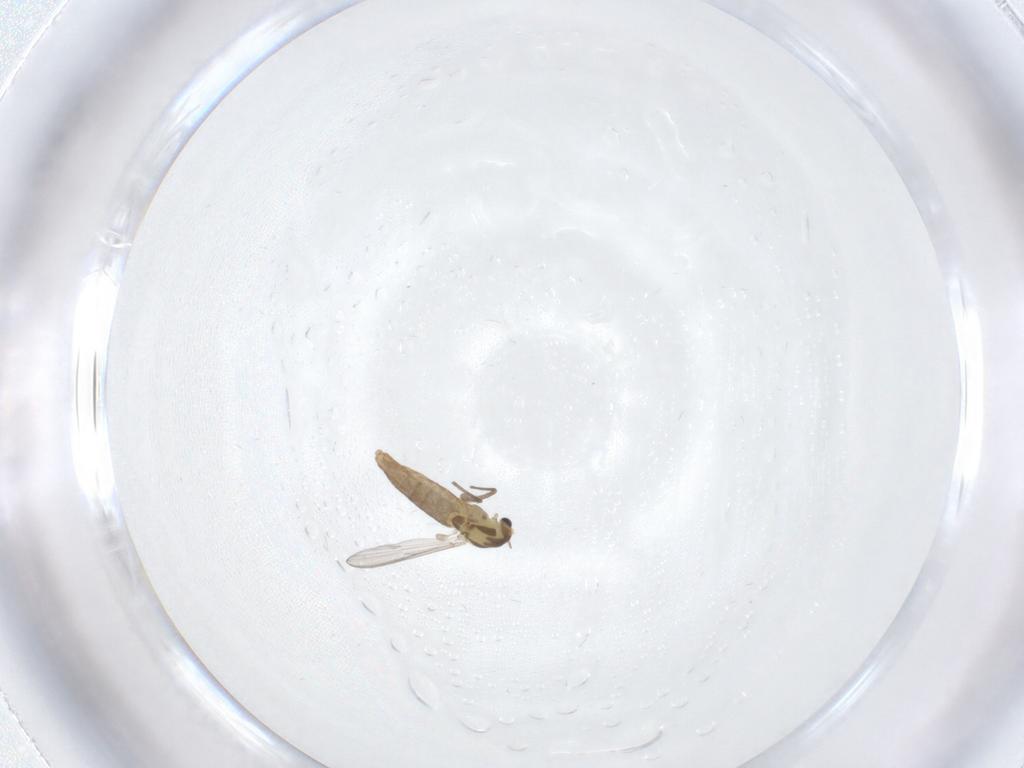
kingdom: Animalia
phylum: Arthropoda
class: Insecta
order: Diptera
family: Chironomidae
